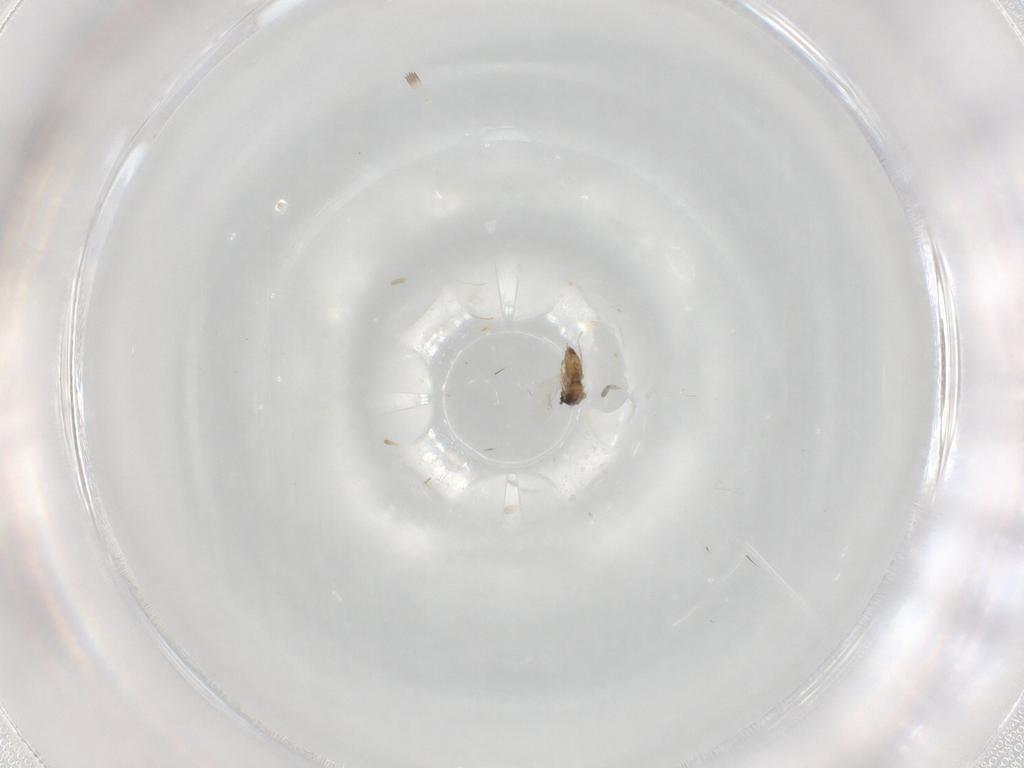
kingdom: Animalia
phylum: Arthropoda
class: Insecta
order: Diptera
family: Cecidomyiidae
